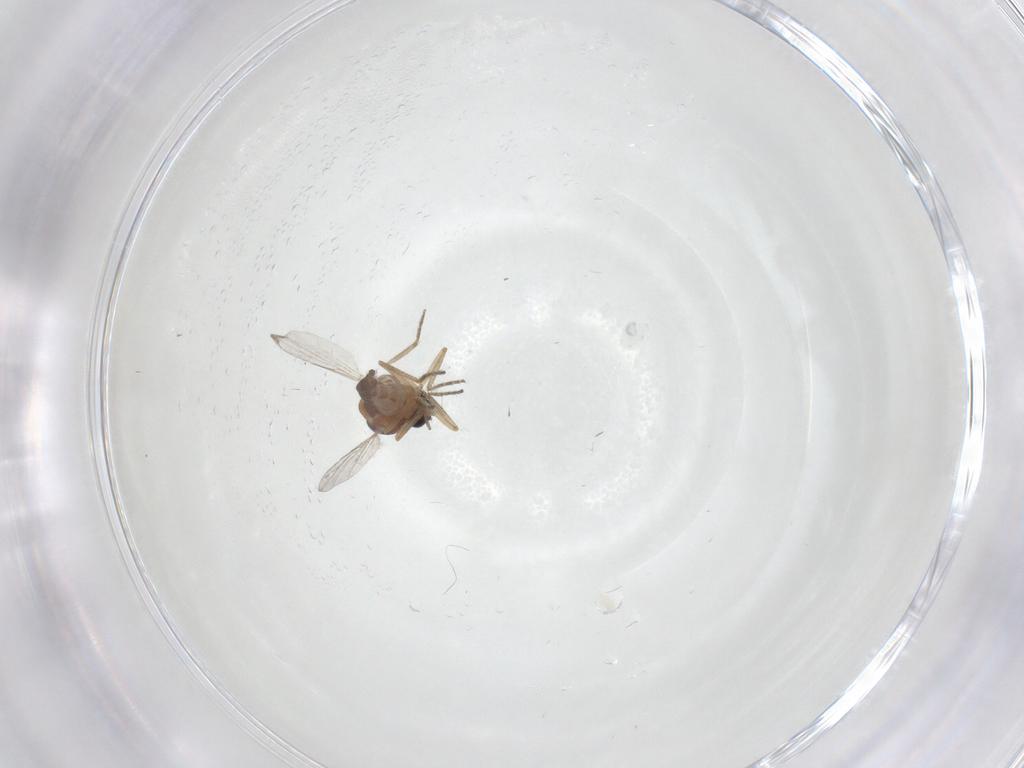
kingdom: Animalia
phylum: Arthropoda
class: Insecta
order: Diptera
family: Ceratopogonidae
